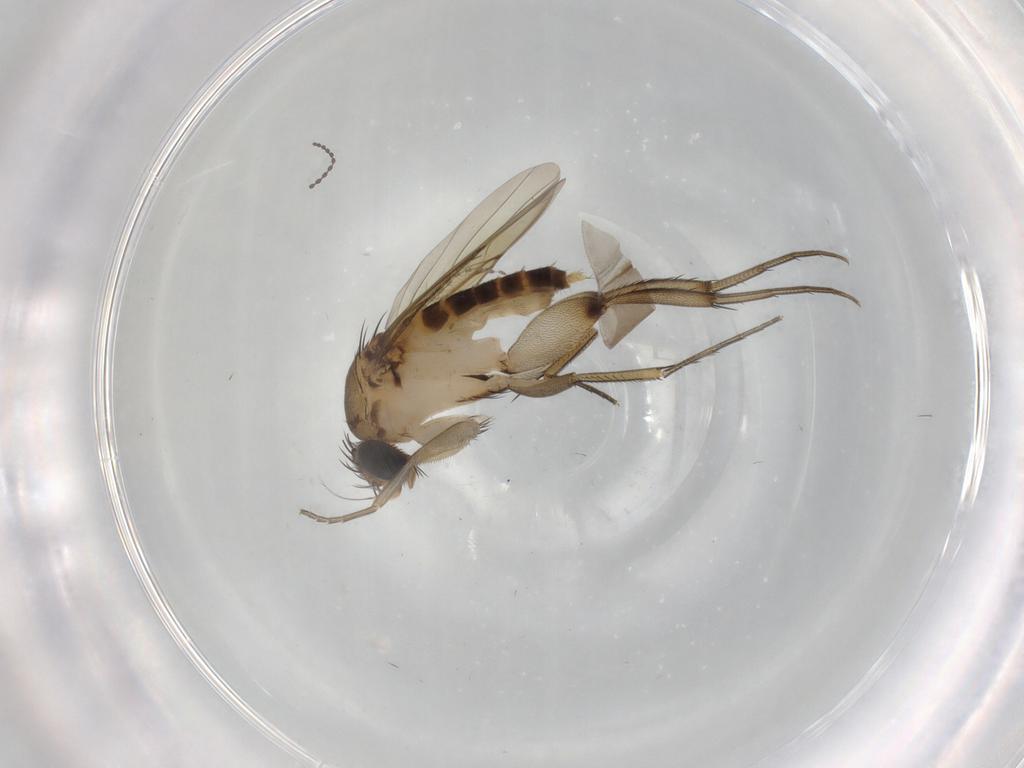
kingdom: Animalia
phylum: Arthropoda
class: Insecta
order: Diptera
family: Phoridae
